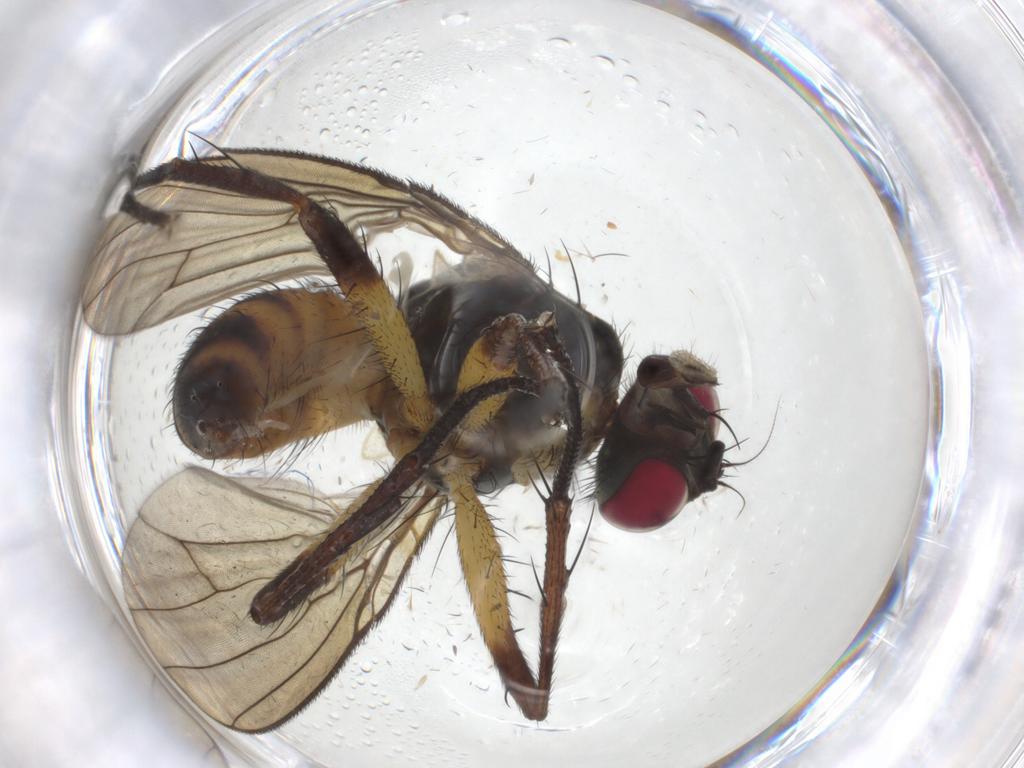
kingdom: Animalia
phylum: Arthropoda
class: Insecta
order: Diptera
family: Muscidae
